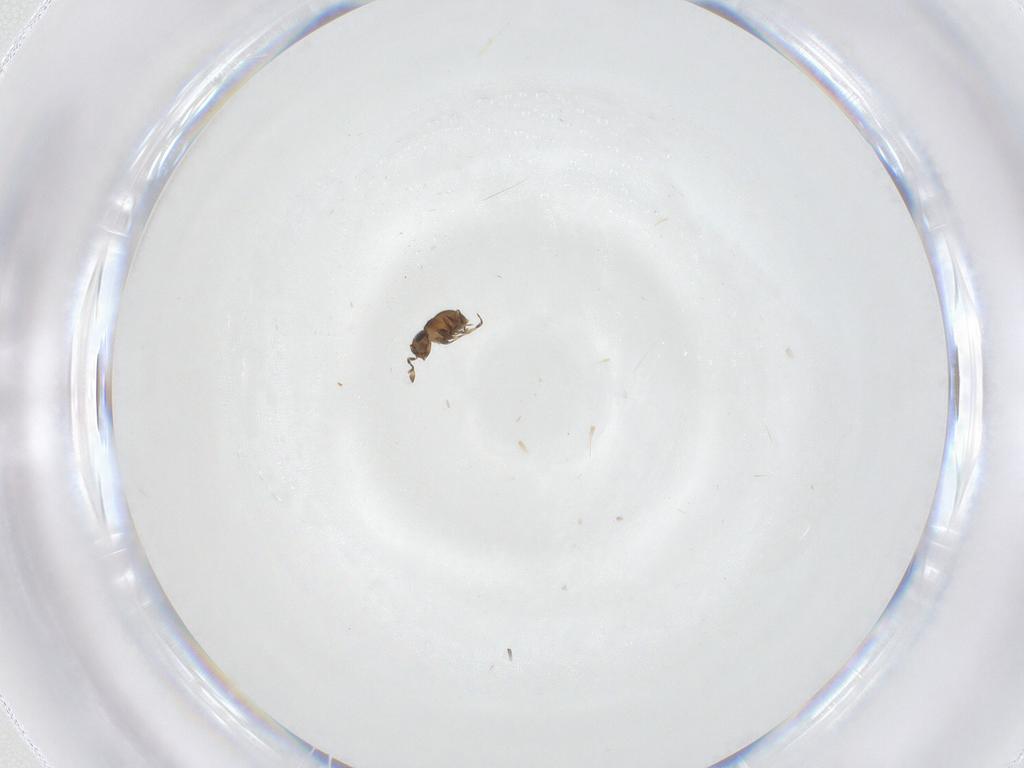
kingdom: Animalia
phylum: Arthropoda
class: Insecta
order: Hymenoptera
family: Scelionidae
